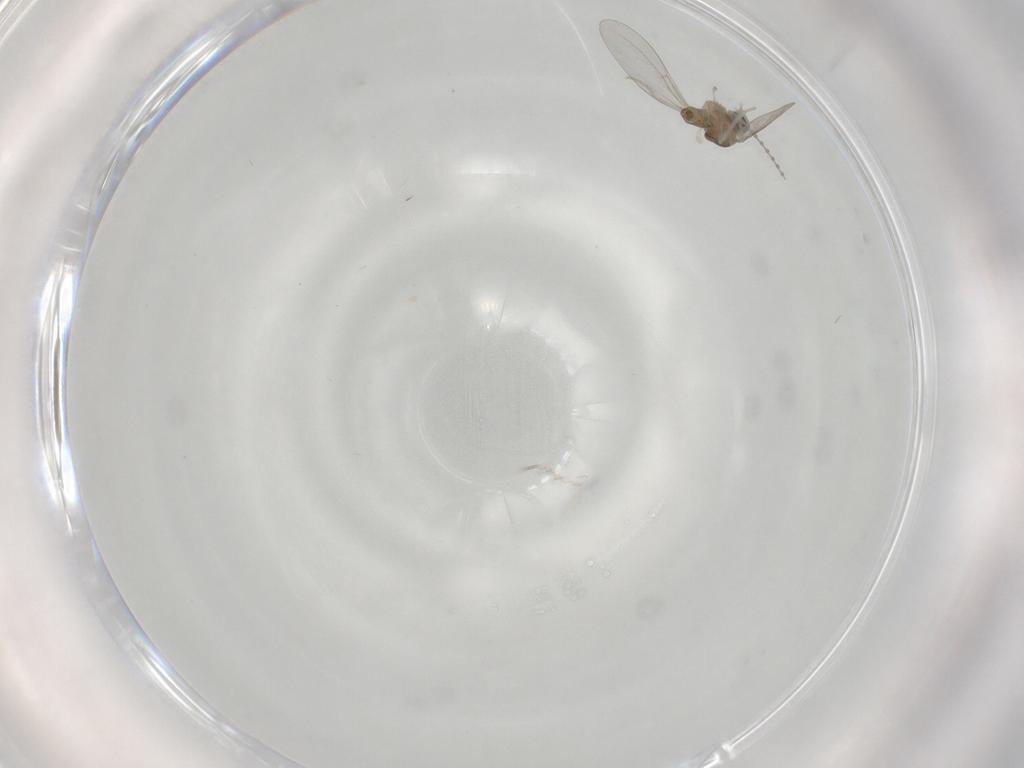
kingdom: Animalia
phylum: Arthropoda
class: Insecta
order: Diptera
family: Cecidomyiidae
